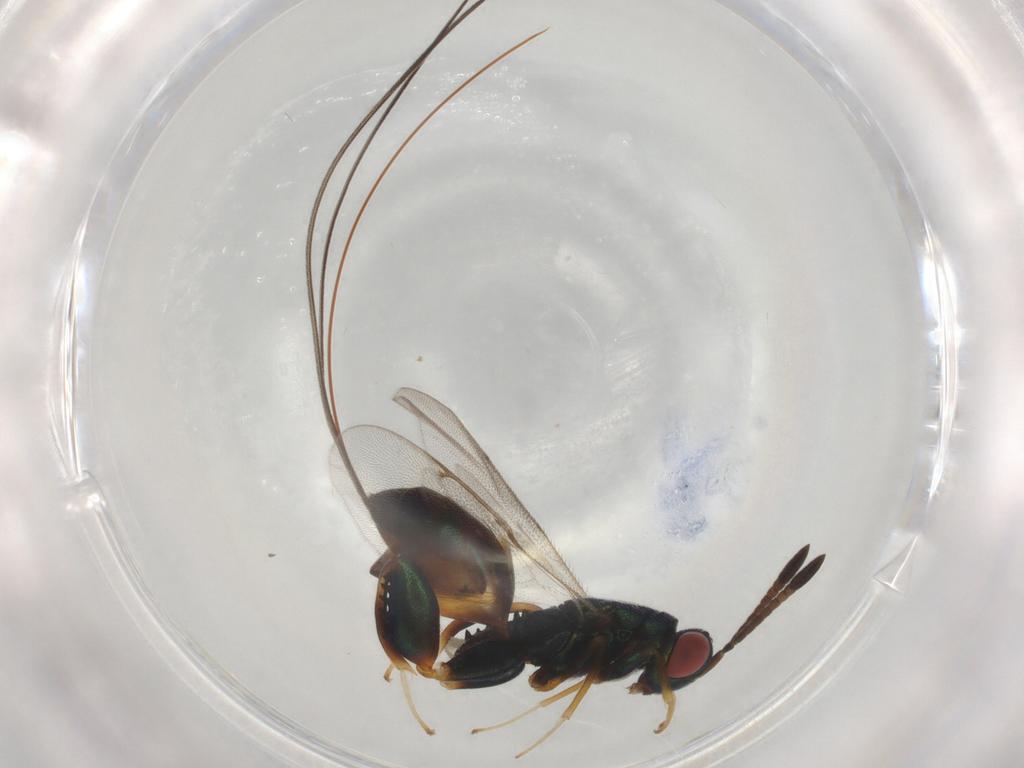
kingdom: Animalia
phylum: Arthropoda
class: Insecta
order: Hymenoptera
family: Torymidae
